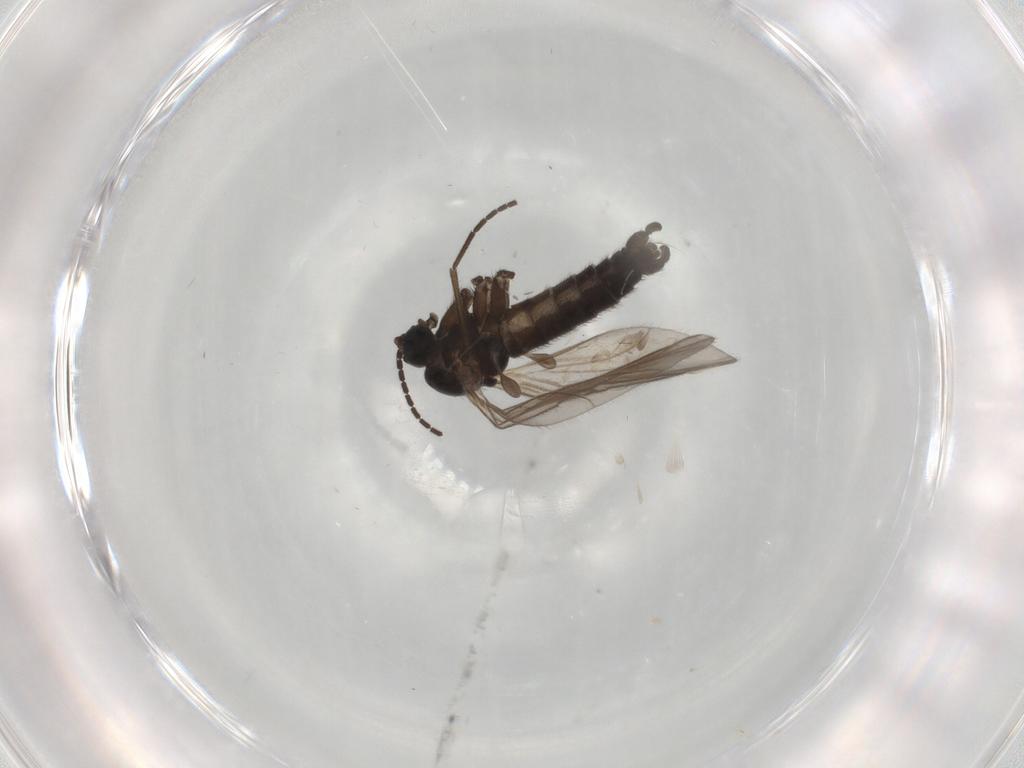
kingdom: Animalia
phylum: Arthropoda
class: Insecta
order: Diptera
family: Sciaridae
